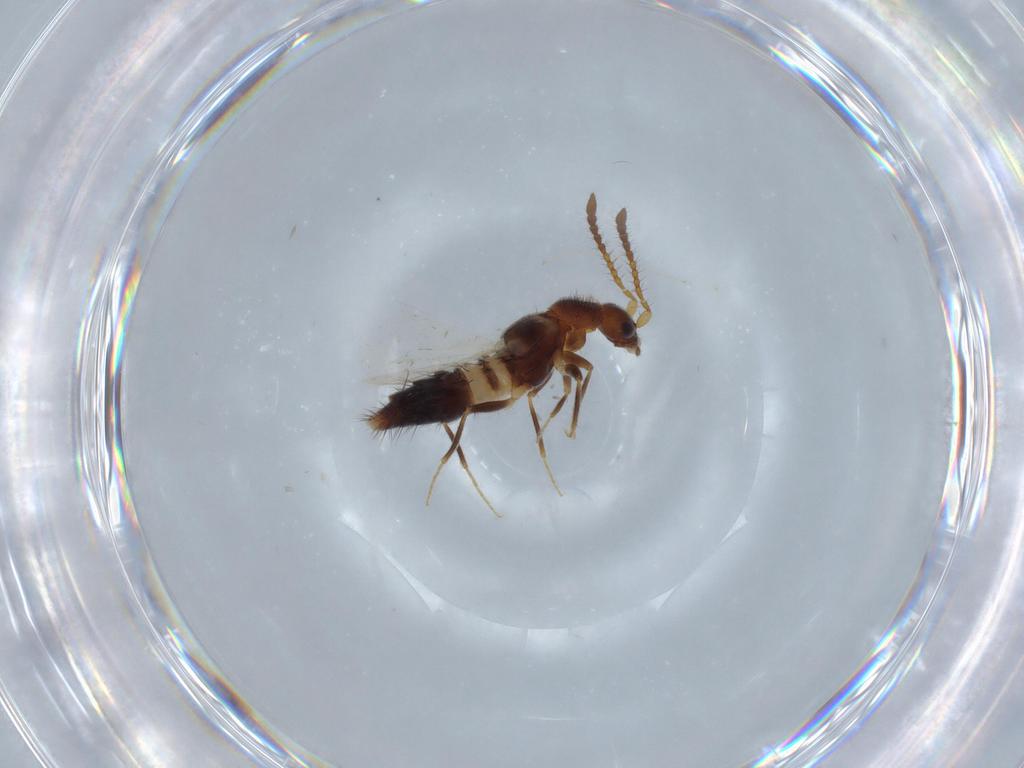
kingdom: Animalia
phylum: Arthropoda
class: Insecta
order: Coleoptera
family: Staphylinidae
